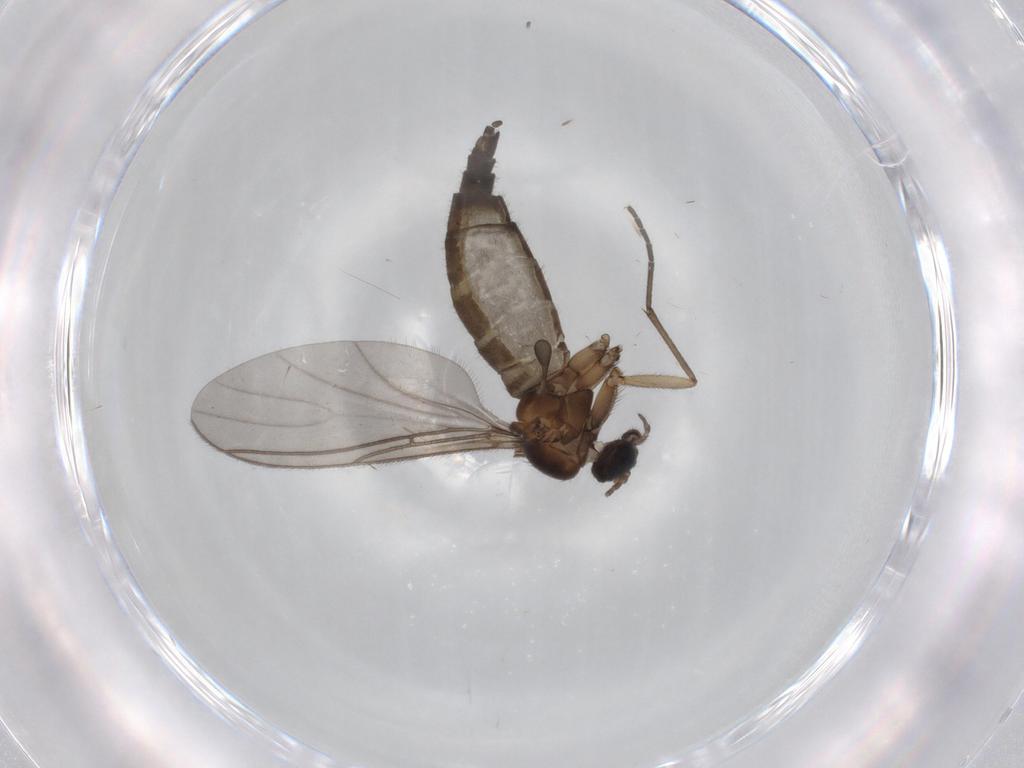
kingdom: Animalia
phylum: Arthropoda
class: Insecta
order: Diptera
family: Sciaridae
